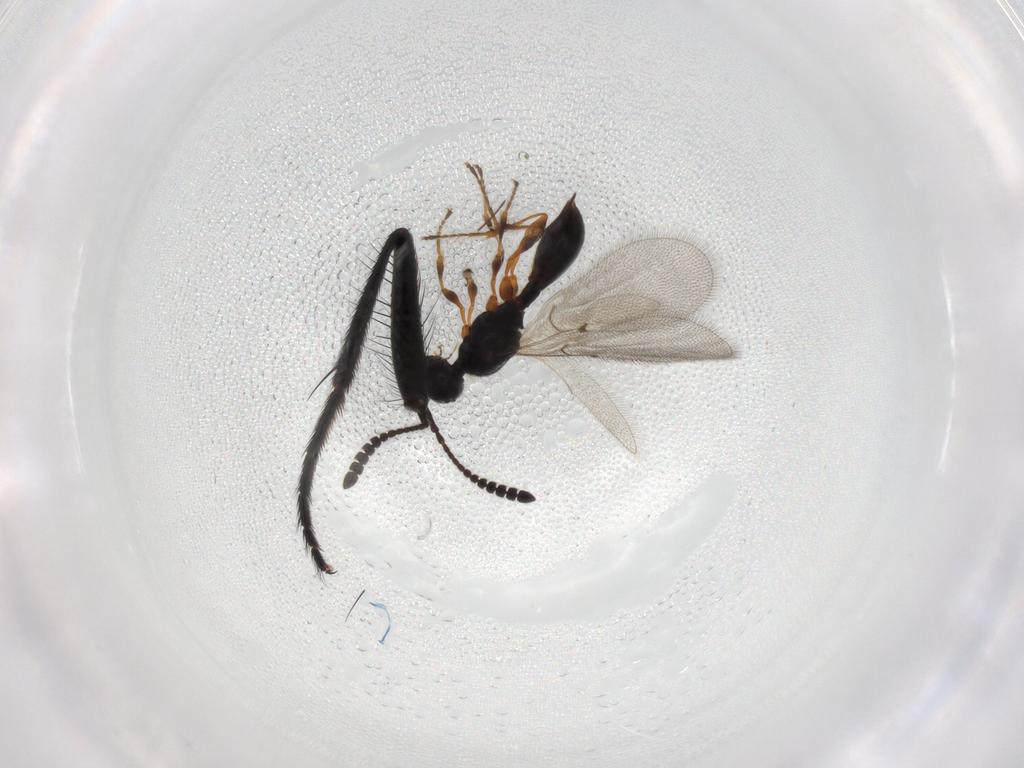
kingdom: Animalia
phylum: Arthropoda
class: Insecta
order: Diptera
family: Fannia
